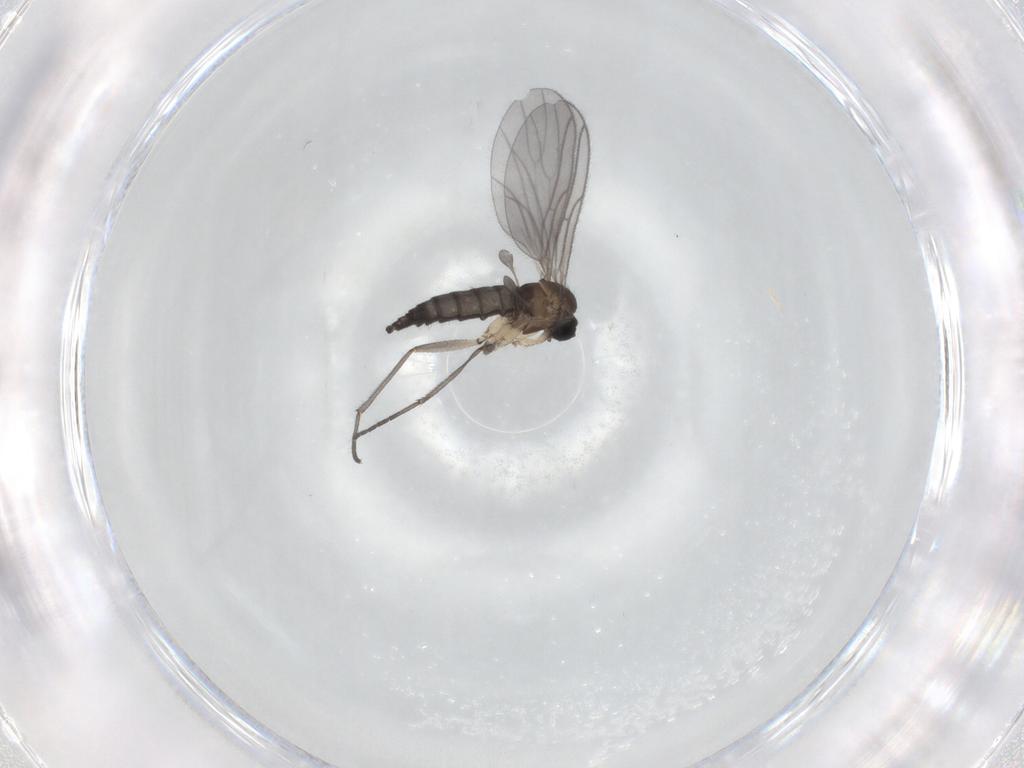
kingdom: Animalia
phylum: Arthropoda
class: Insecta
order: Diptera
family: Sciaridae
